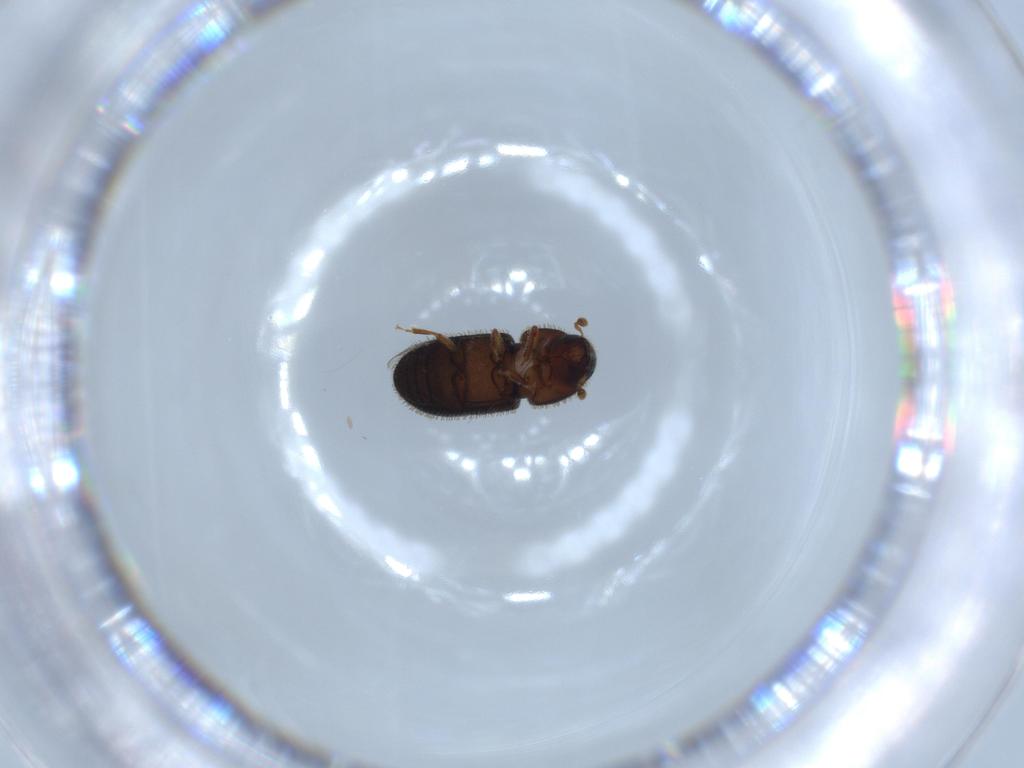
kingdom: Animalia
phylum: Arthropoda
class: Insecta
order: Coleoptera
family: Curculionidae
